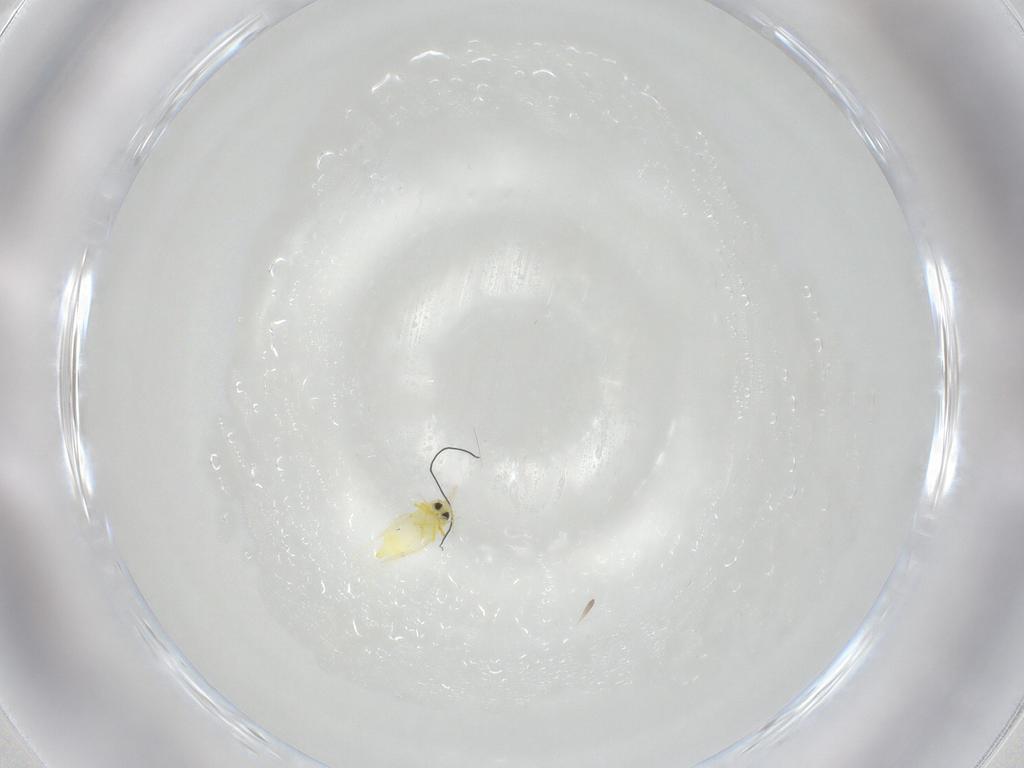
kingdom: Animalia
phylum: Arthropoda
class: Insecta
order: Hemiptera
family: Aleyrodidae
